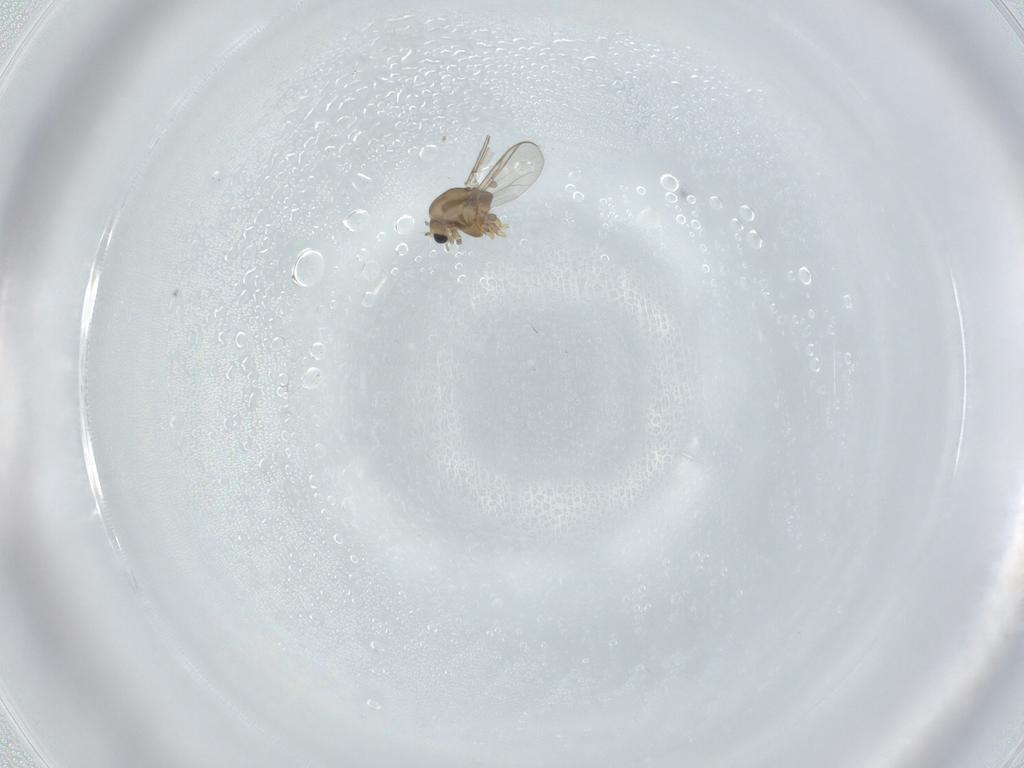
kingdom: Animalia
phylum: Arthropoda
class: Insecta
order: Diptera
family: Chironomidae
